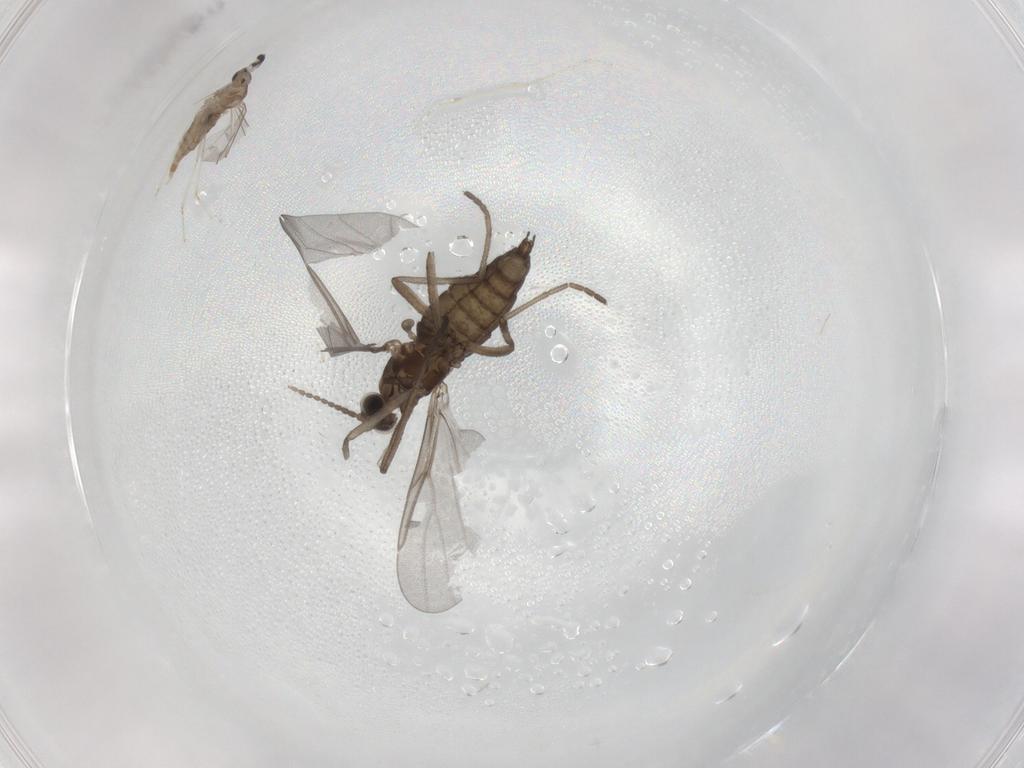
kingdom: Animalia
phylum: Arthropoda
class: Insecta
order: Diptera
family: Cecidomyiidae
